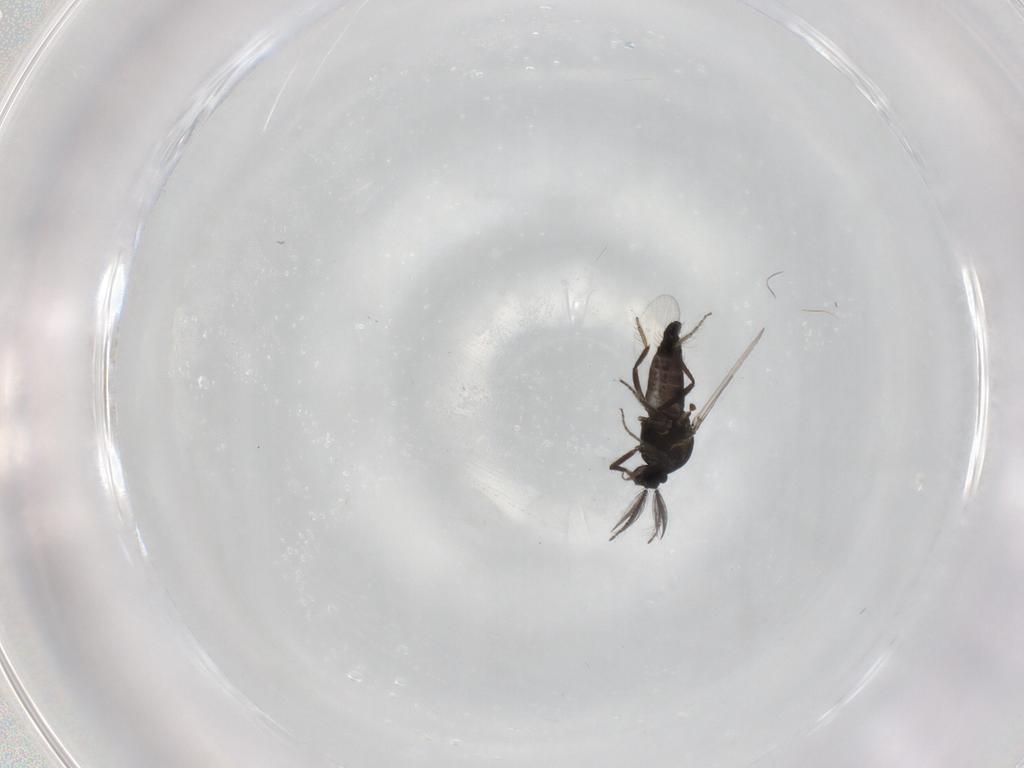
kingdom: Animalia
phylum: Arthropoda
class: Insecta
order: Diptera
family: Ceratopogonidae
